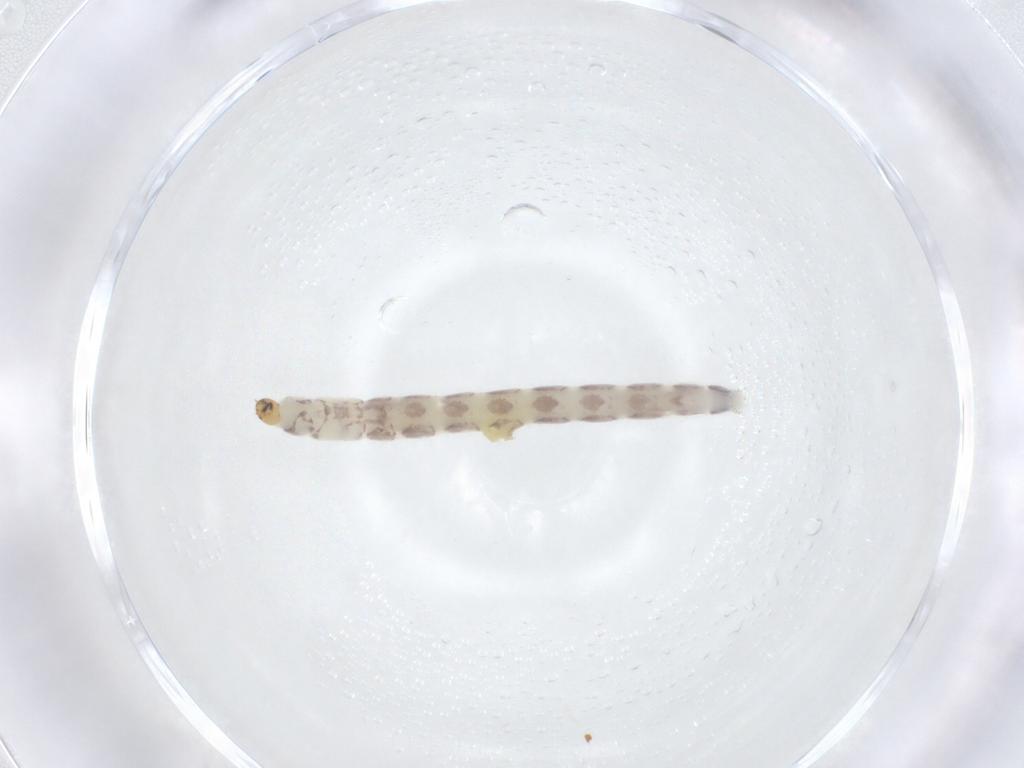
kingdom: Animalia
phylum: Arthropoda
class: Insecta
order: Diptera
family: Chironomidae
